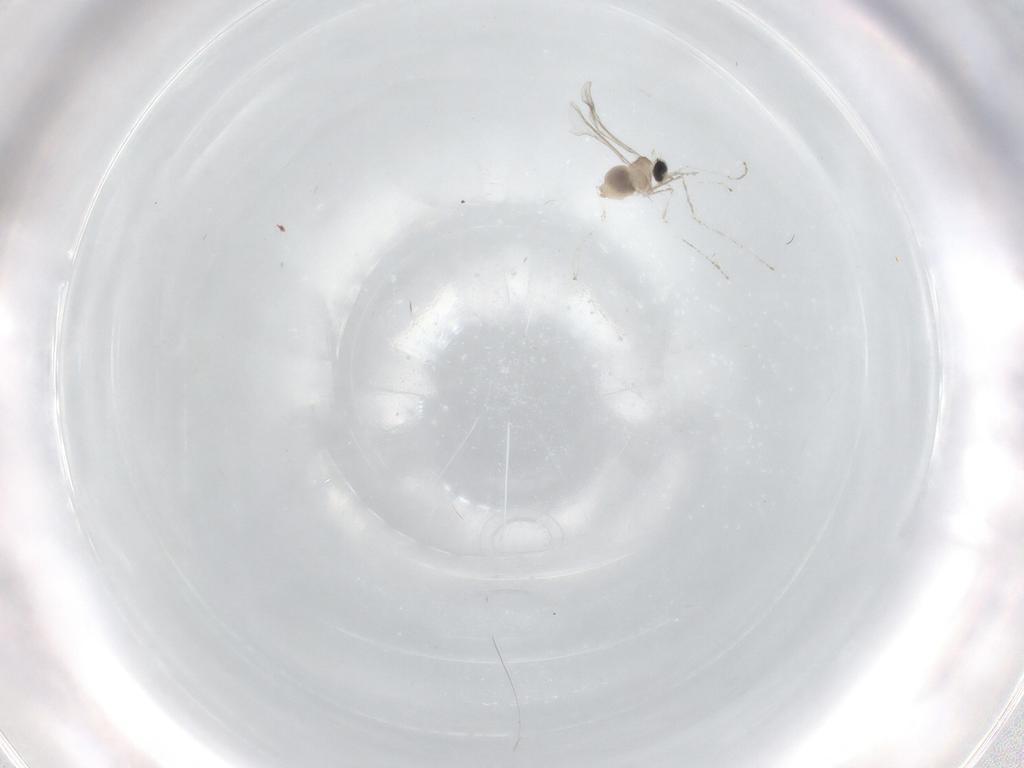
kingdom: Animalia
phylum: Arthropoda
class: Insecta
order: Diptera
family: Cecidomyiidae
